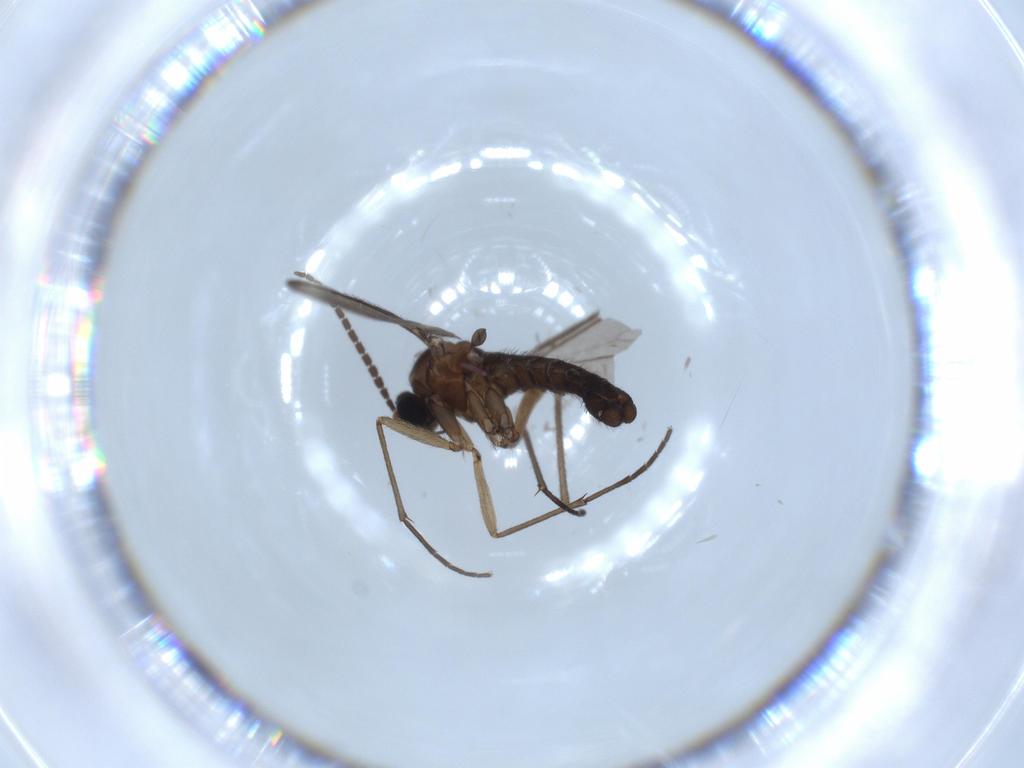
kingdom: Animalia
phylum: Arthropoda
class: Insecta
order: Diptera
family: Sciaridae
